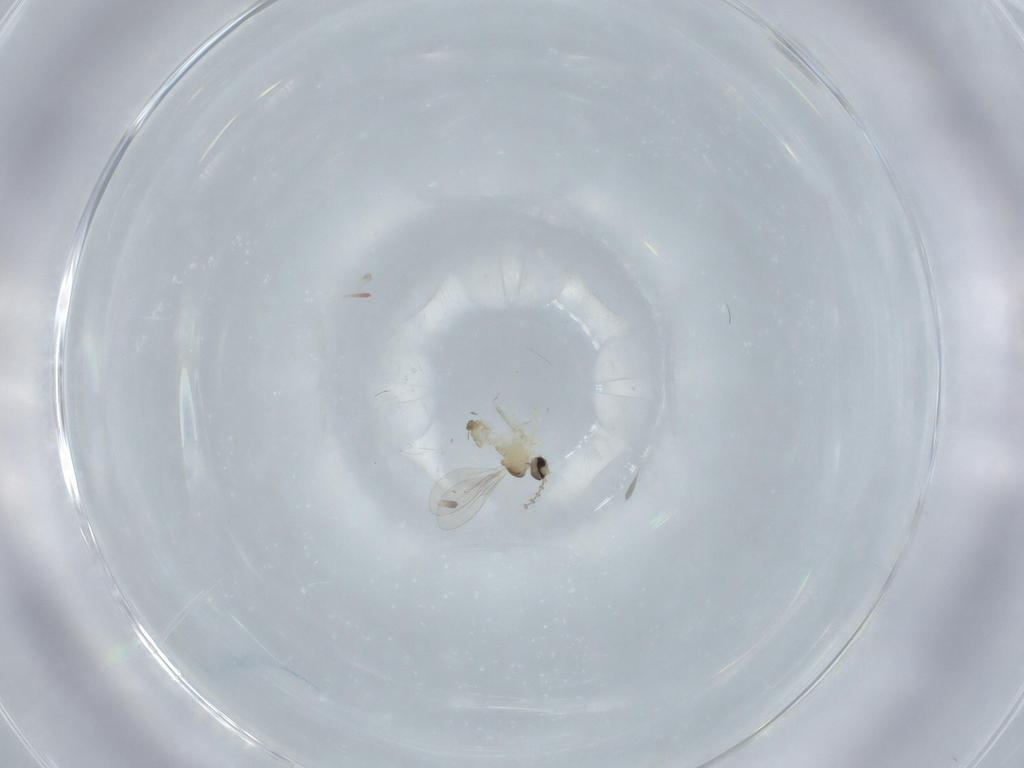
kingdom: Animalia
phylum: Arthropoda
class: Insecta
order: Diptera
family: Cecidomyiidae
